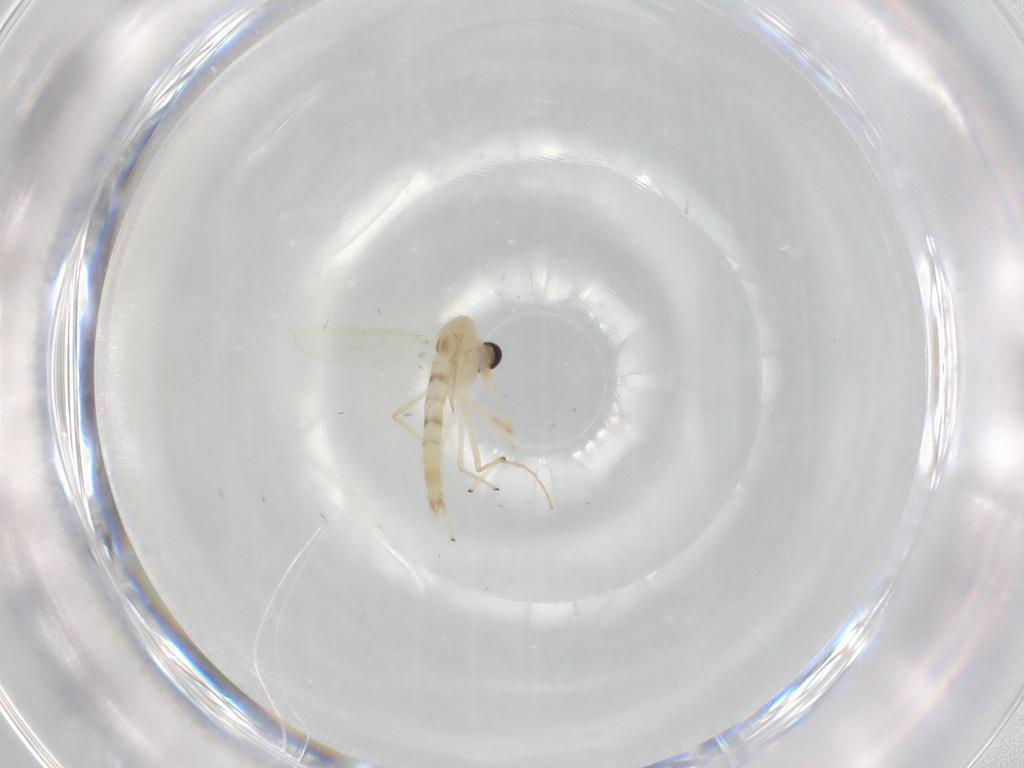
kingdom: Animalia
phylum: Arthropoda
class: Insecta
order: Diptera
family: Chironomidae
